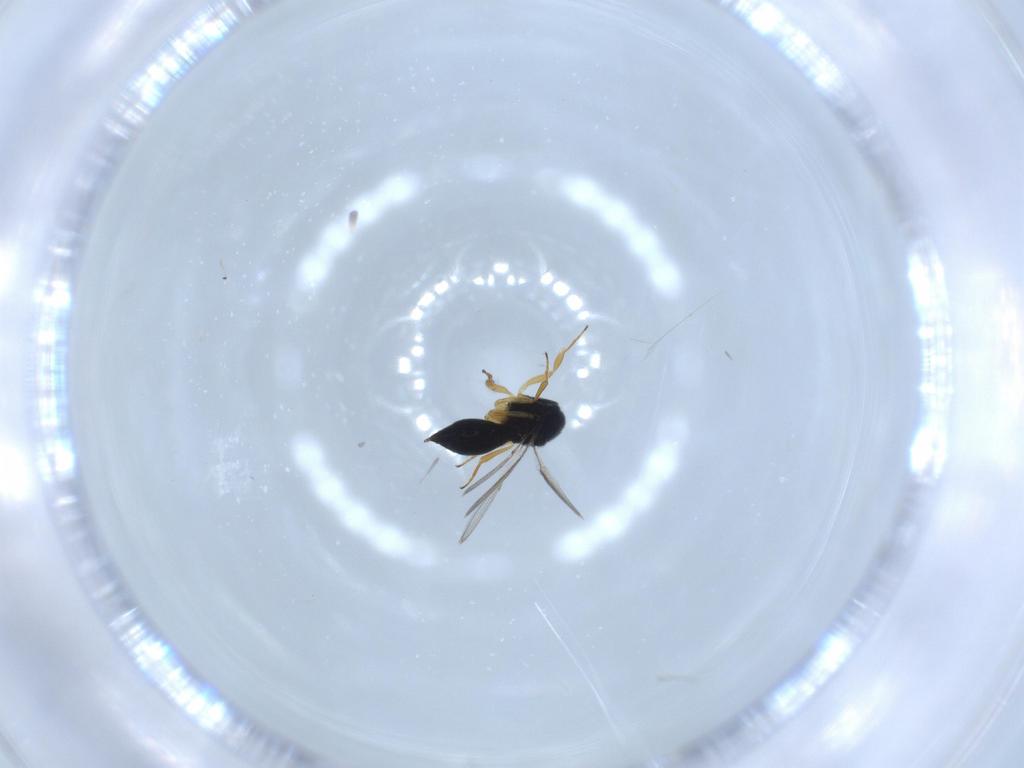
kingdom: Animalia
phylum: Arthropoda
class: Insecta
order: Hymenoptera
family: Scelionidae
